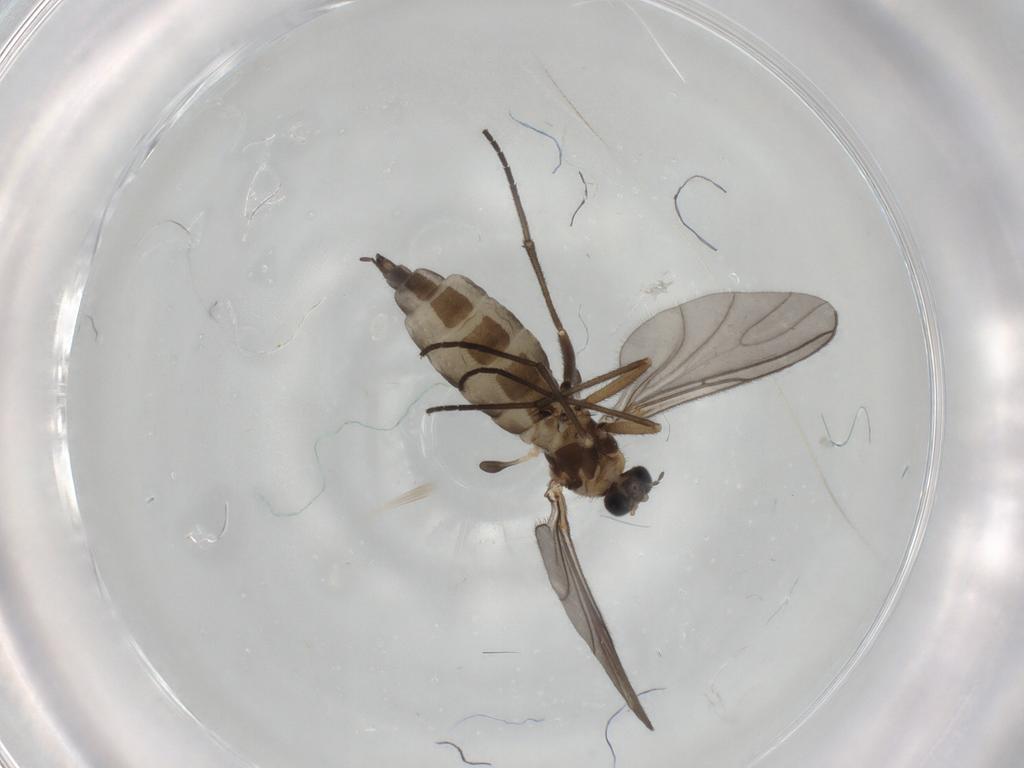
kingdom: Animalia
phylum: Arthropoda
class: Insecta
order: Diptera
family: Sciaridae
